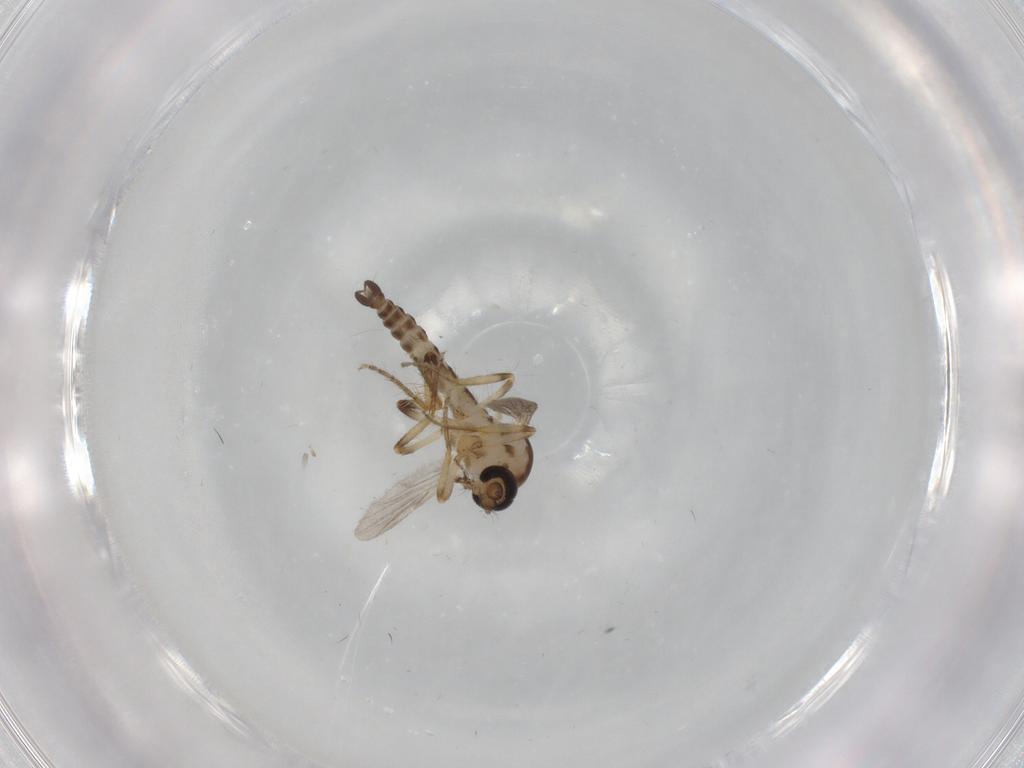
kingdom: Animalia
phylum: Arthropoda
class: Insecta
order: Diptera
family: Ceratopogonidae
